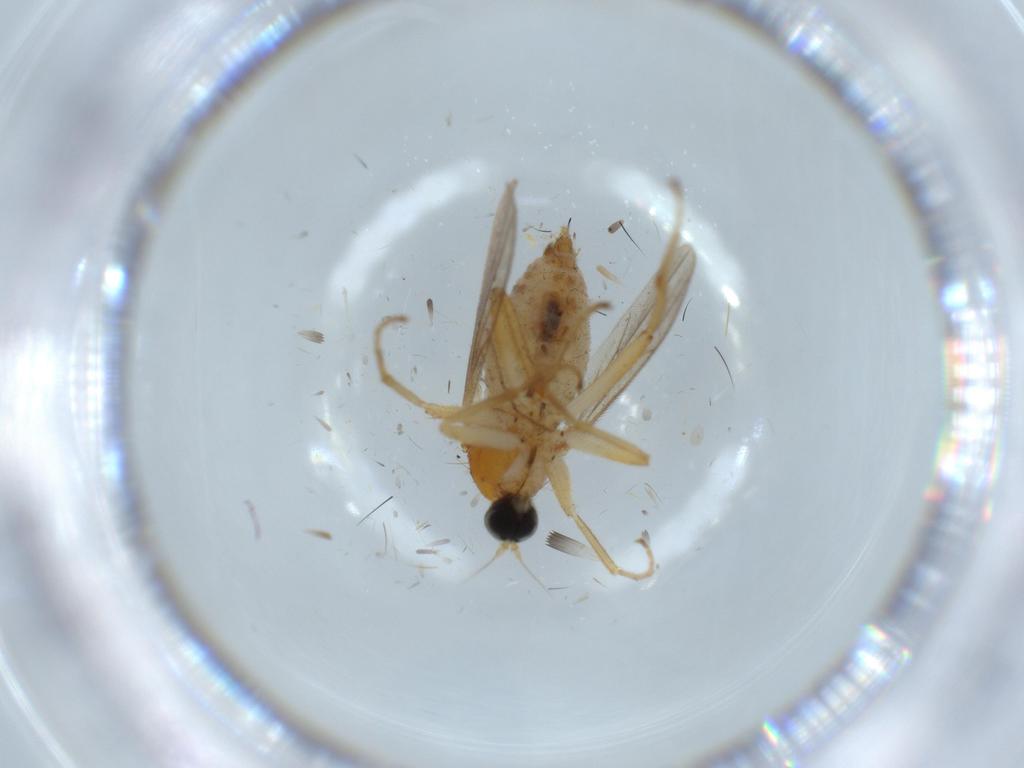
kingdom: Animalia
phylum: Arthropoda
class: Insecta
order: Diptera
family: Hybotidae
